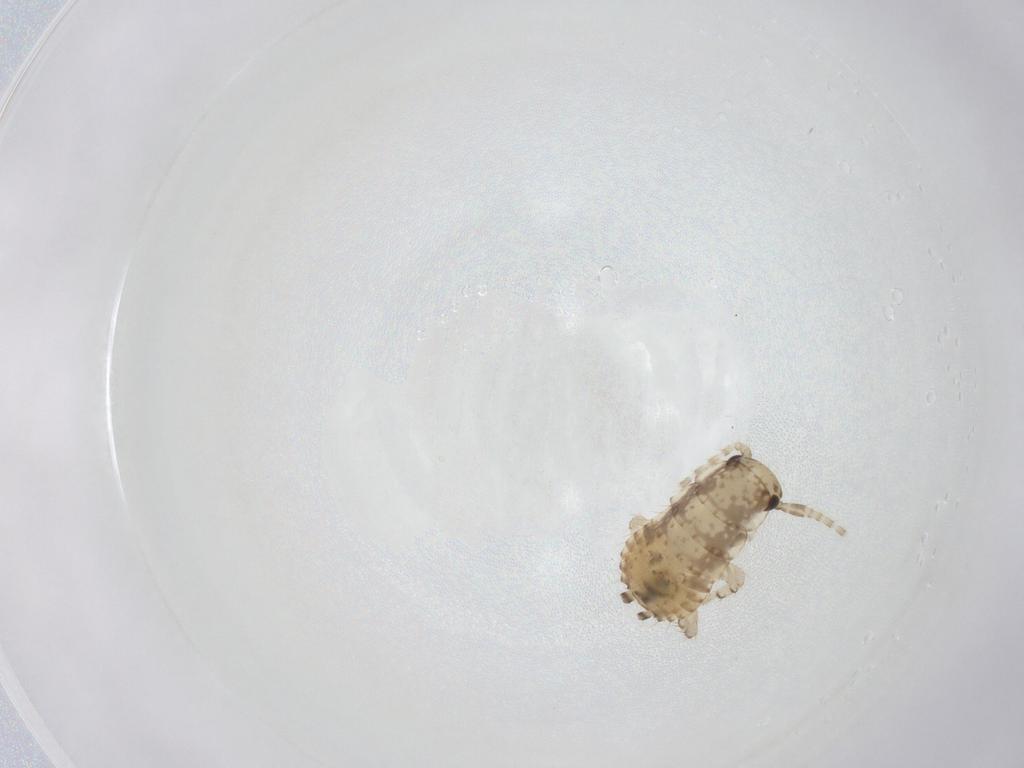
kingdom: Animalia
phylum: Arthropoda
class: Insecta
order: Blattodea
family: Ectobiidae
